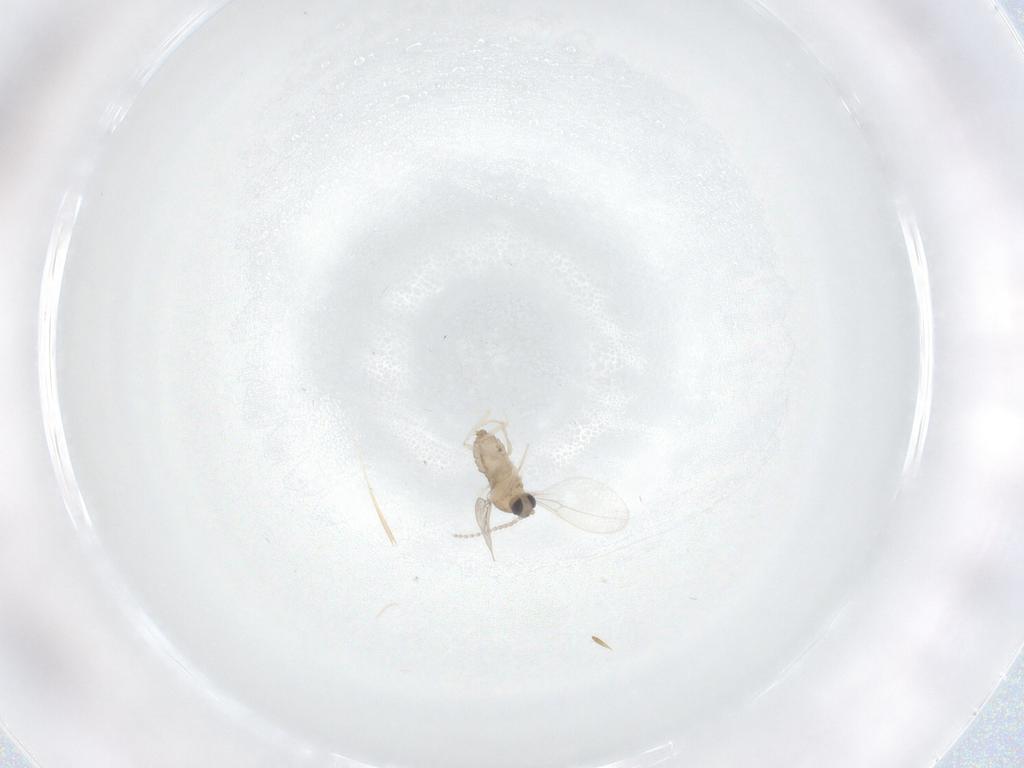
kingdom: Animalia
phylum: Arthropoda
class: Insecta
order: Diptera
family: Cecidomyiidae
